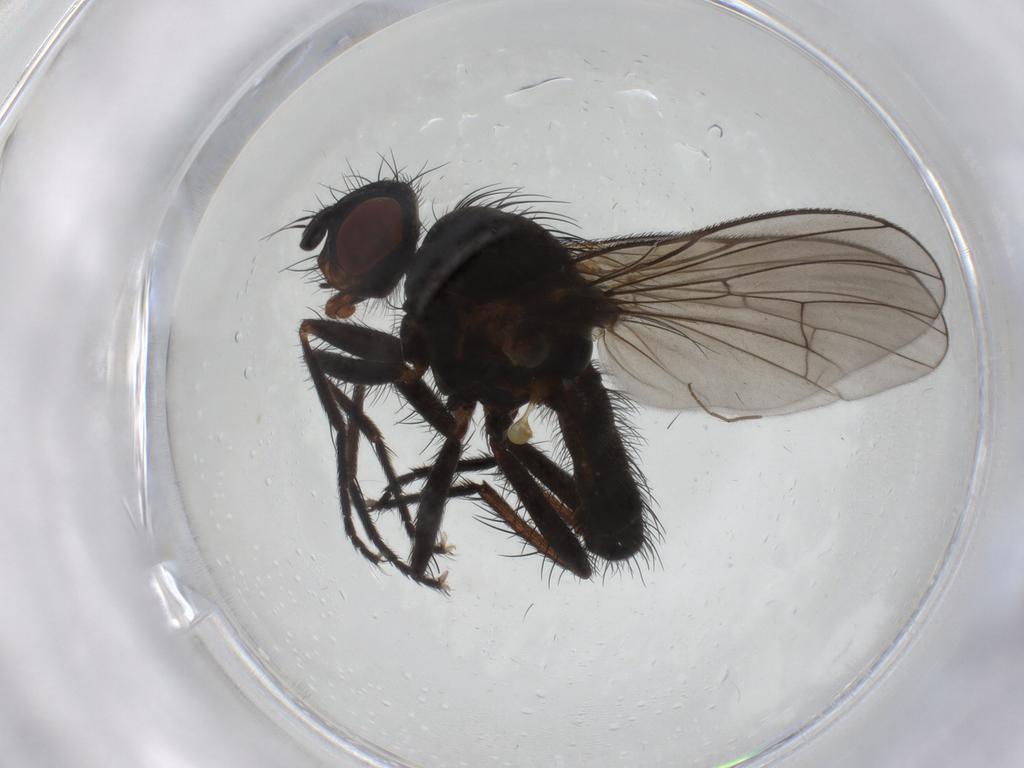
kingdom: Animalia
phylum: Arthropoda
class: Insecta
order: Diptera
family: Anthomyiidae
